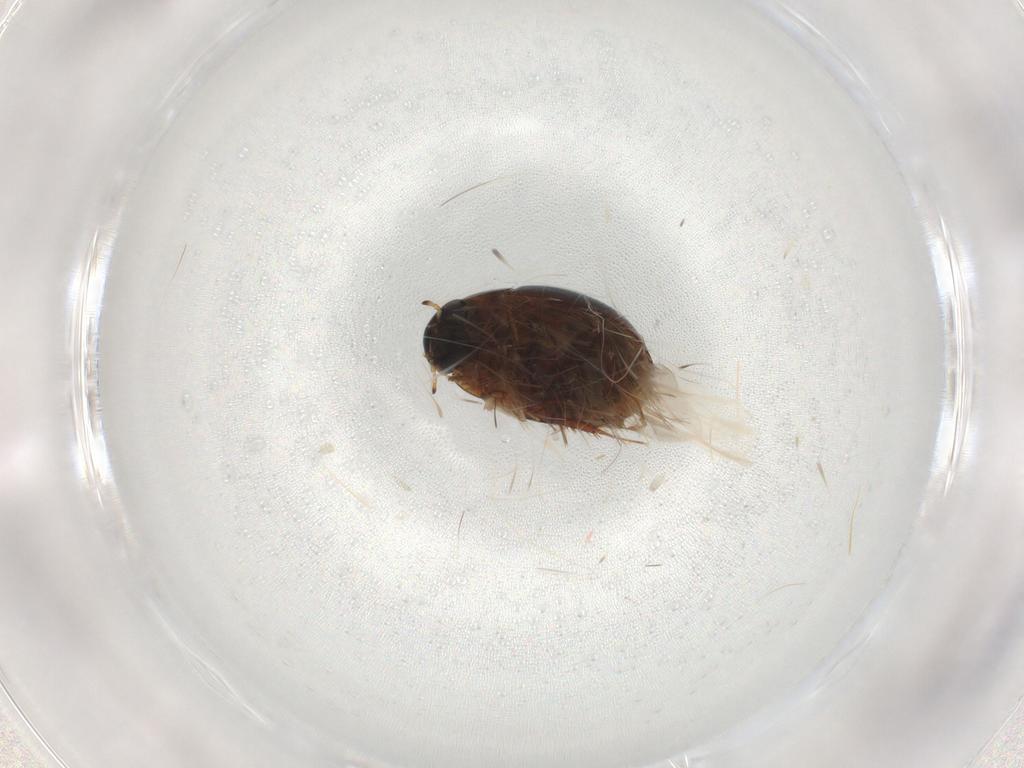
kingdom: Animalia
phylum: Arthropoda
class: Insecta
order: Coleoptera
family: Hydrophilidae
